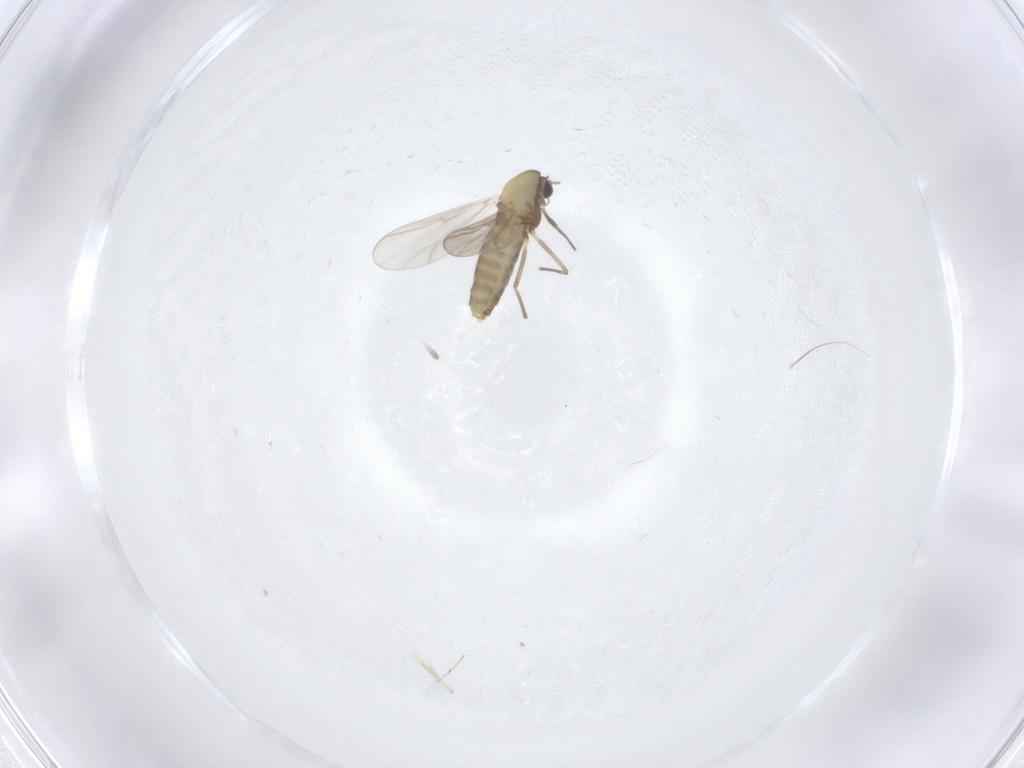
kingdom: Animalia
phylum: Arthropoda
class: Insecta
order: Diptera
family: Chironomidae
